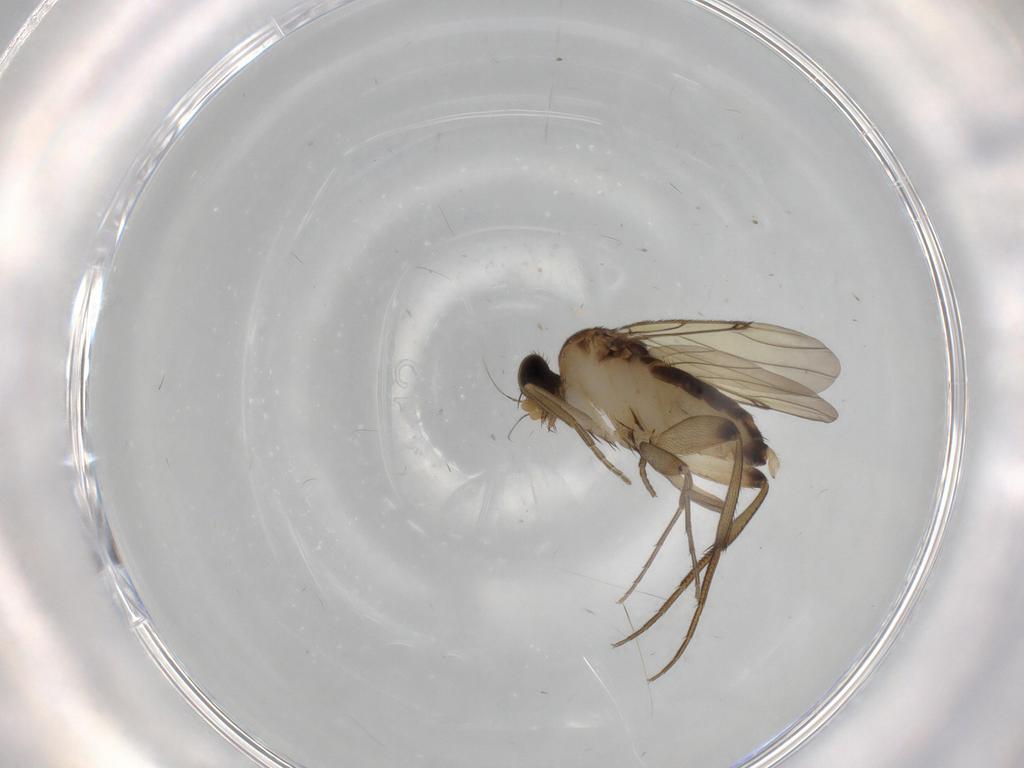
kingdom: Animalia
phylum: Arthropoda
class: Insecta
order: Diptera
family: Phoridae
